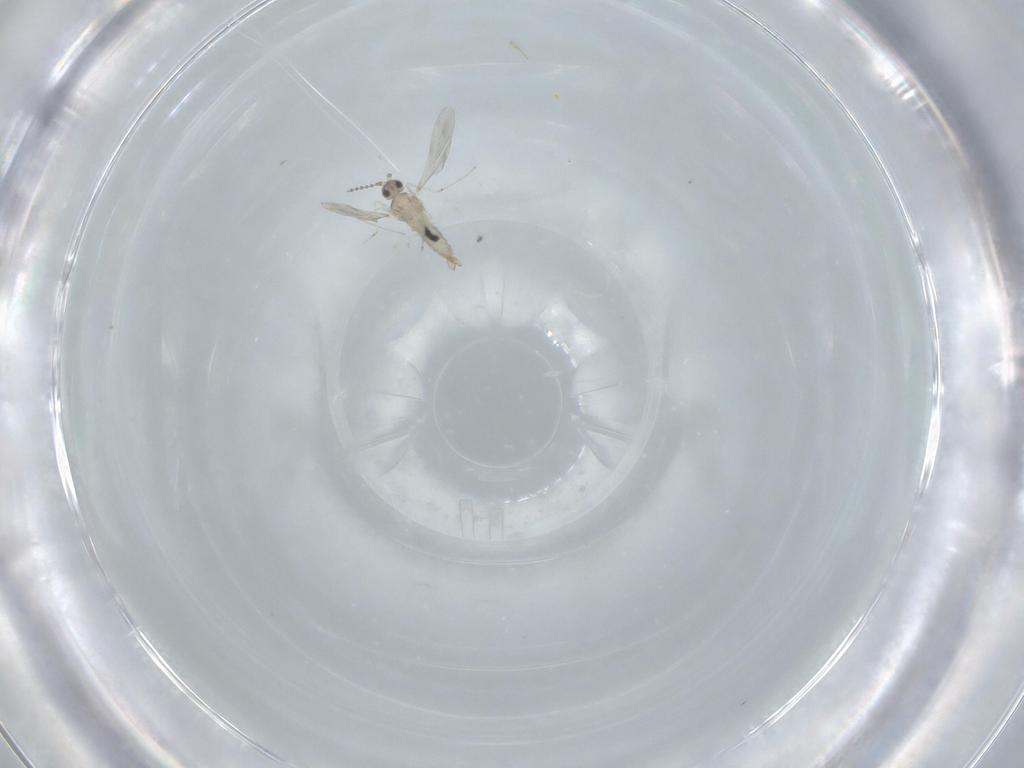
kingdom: Animalia
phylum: Arthropoda
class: Insecta
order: Diptera
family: Cecidomyiidae
